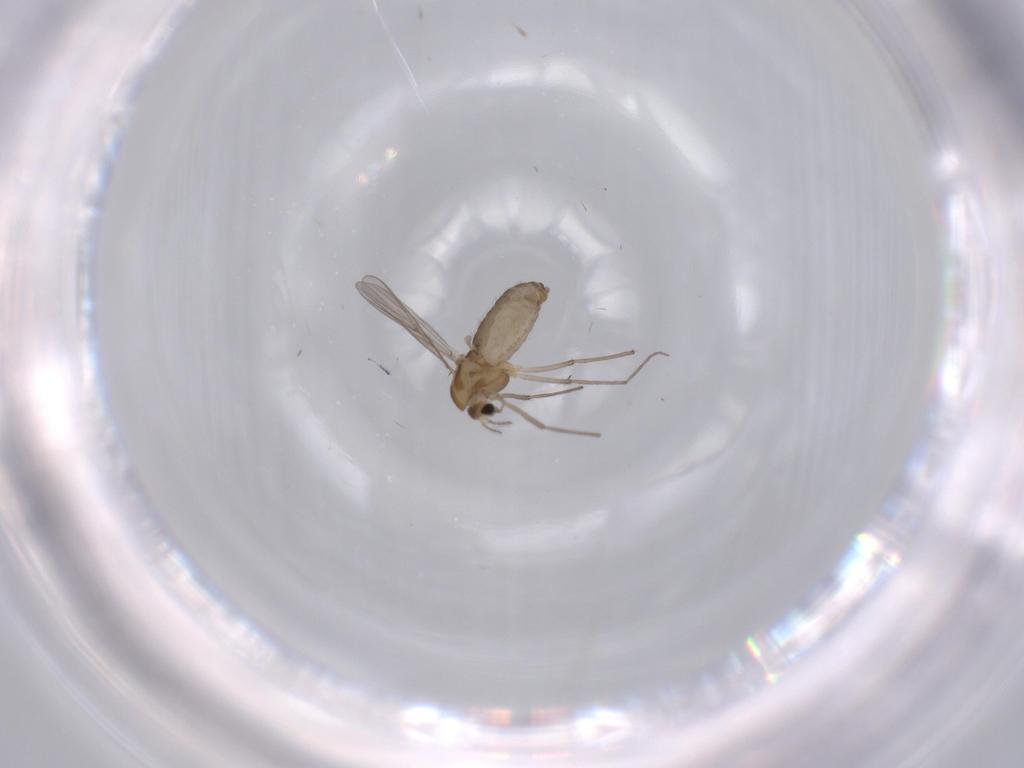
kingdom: Animalia
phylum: Arthropoda
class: Insecta
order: Diptera
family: Chironomidae
